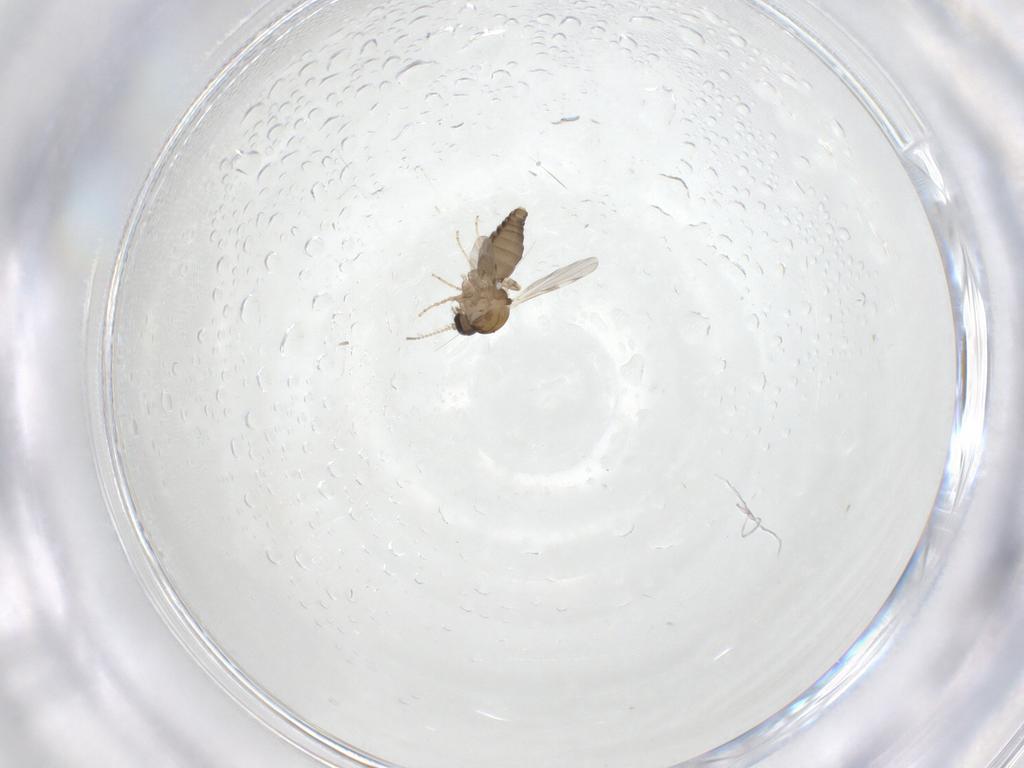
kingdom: Animalia
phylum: Arthropoda
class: Insecta
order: Diptera
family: Ceratopogonidae
